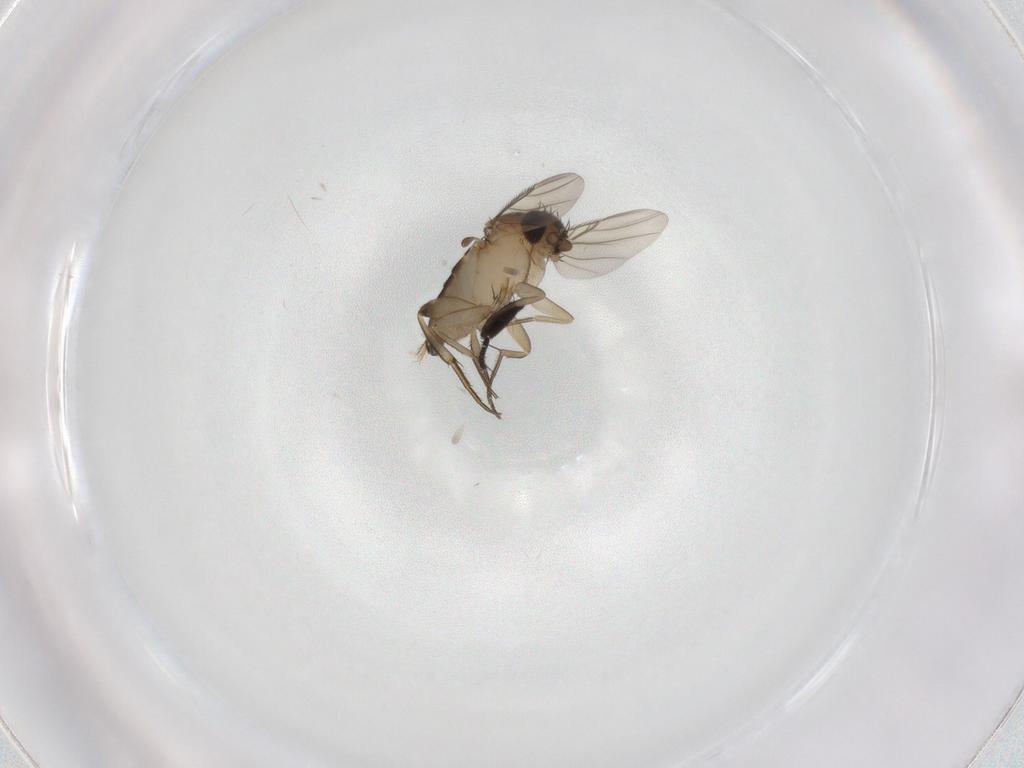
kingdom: Animalia
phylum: Arthropoda
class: Insecta
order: Diptera
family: Phoridae
